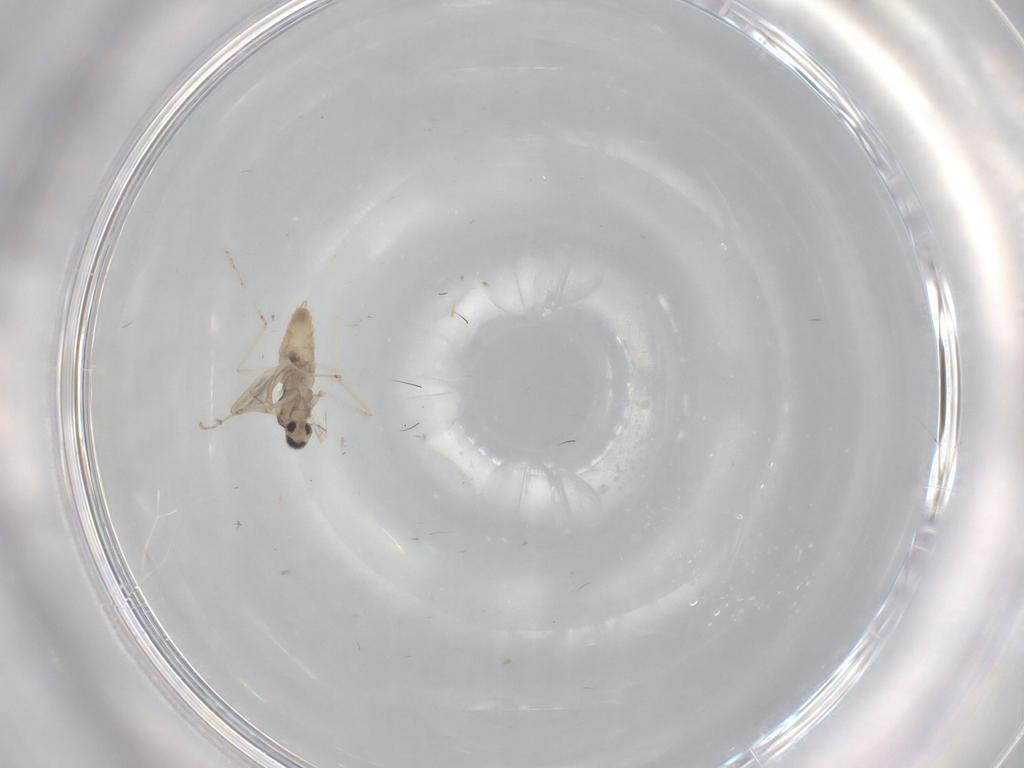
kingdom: Animalia
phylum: Arthropoda
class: Insecta
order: Diptera
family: Cecidomyiidae
